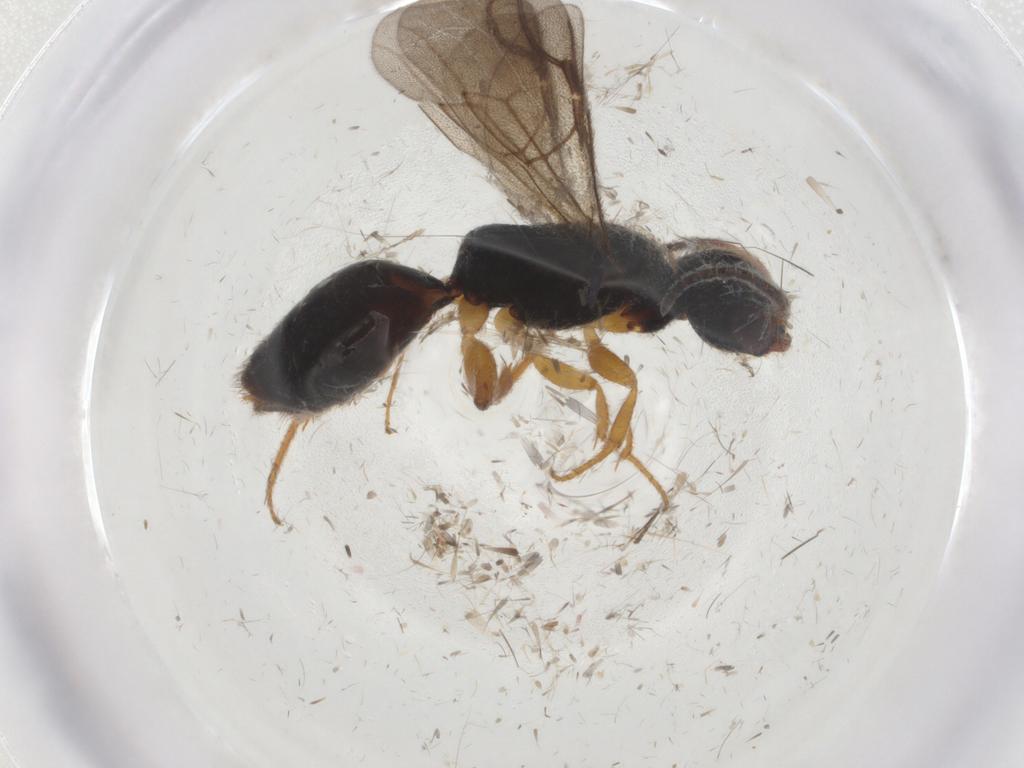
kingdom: Animalia
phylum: Arthropoda
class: Insecta
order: Hymenoptera
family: Bethylidae
